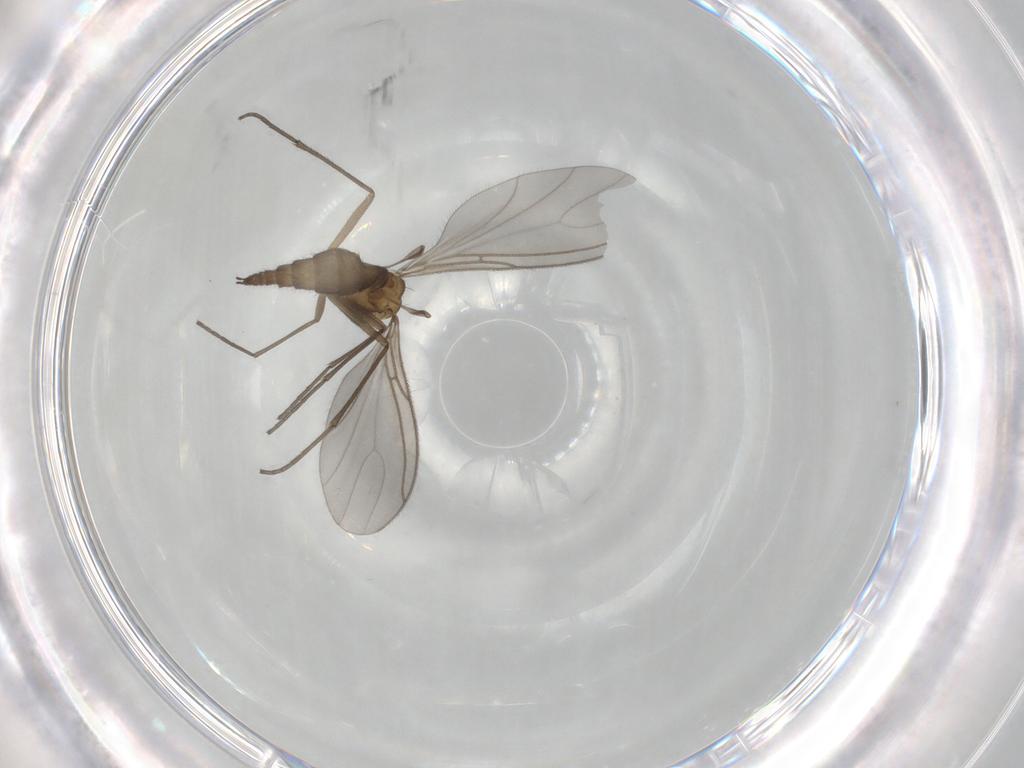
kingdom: Animalia
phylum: Arthropoda
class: Insecta
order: Diptera
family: Sciaridae
